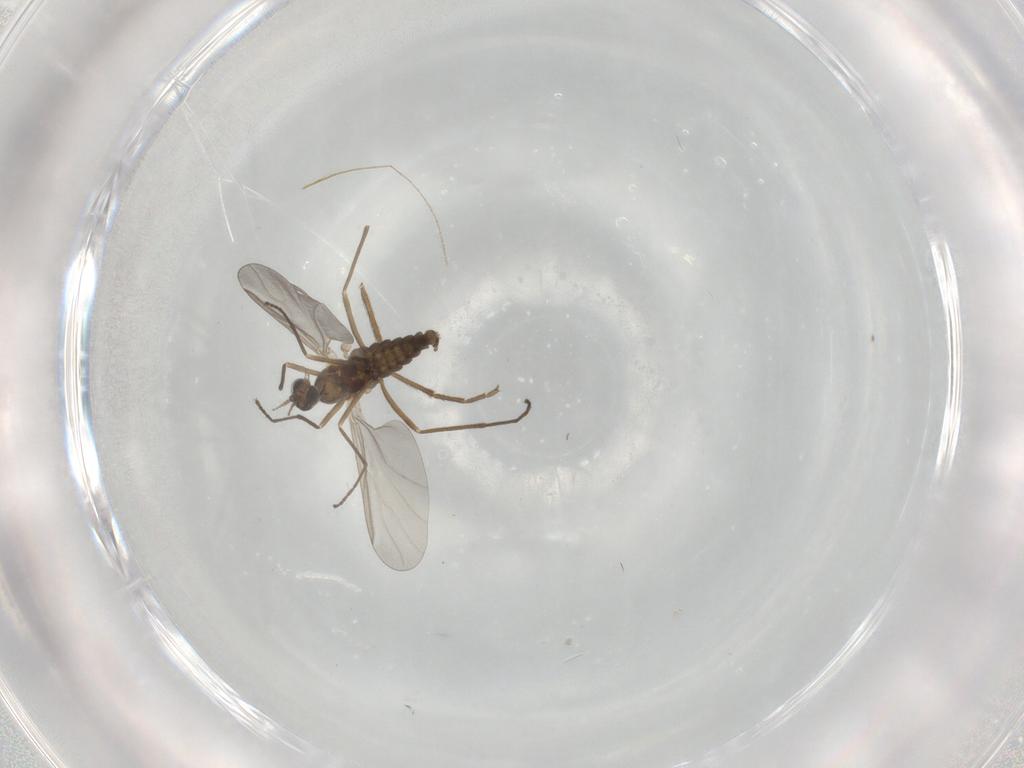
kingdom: Animalia
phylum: Arthropoda
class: Insecta
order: Diptera
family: Cecidomyiidae
